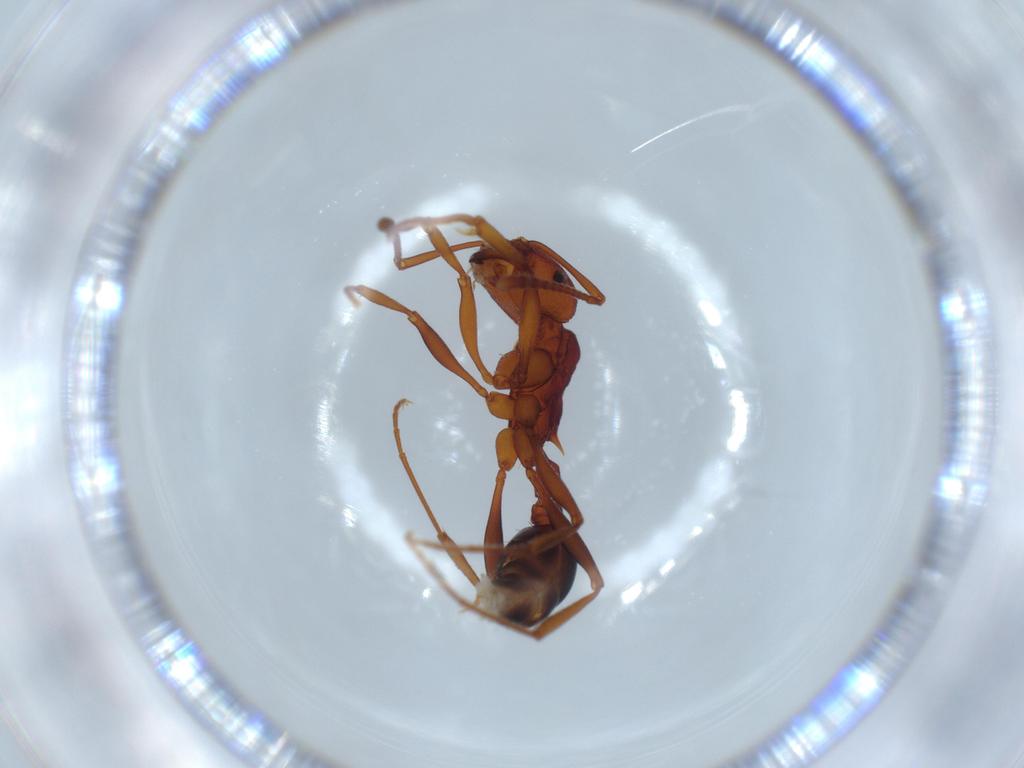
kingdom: Animalia
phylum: Arthropoda
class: Insecta
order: Hymenoptera
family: Formicidae
